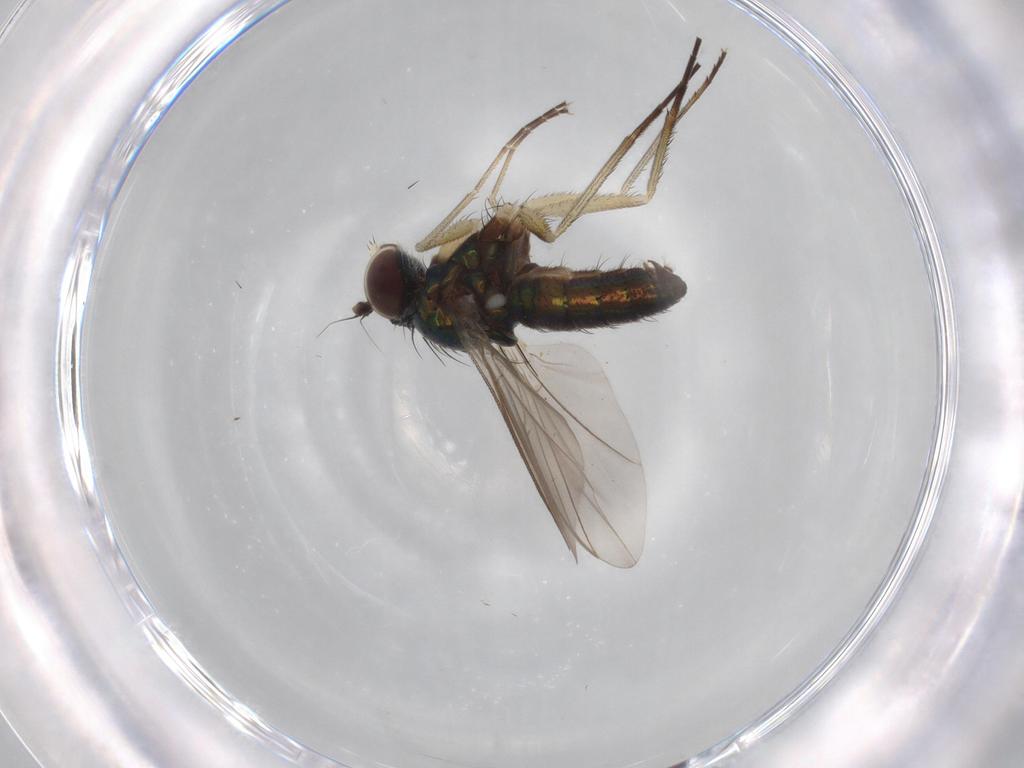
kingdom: Animalia
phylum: Arthropoda
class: Insecta
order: Diptera
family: Dolichopodidae
